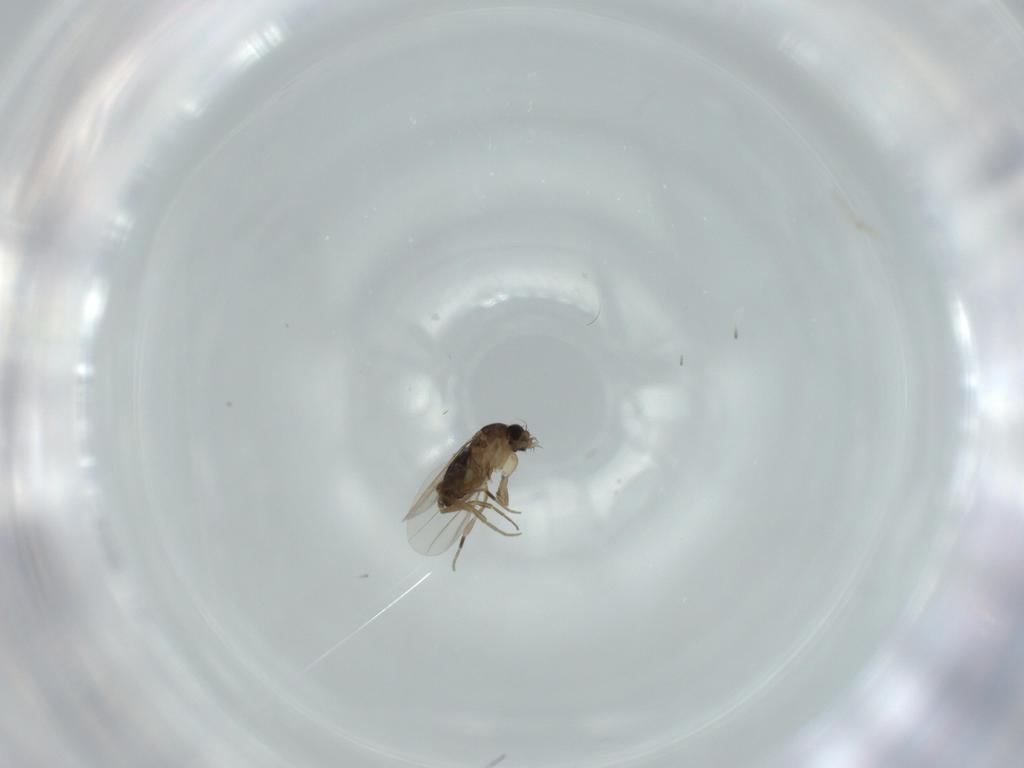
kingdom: Animalia
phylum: Arthropoda
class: Insecta
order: Diptera
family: Phoridae
